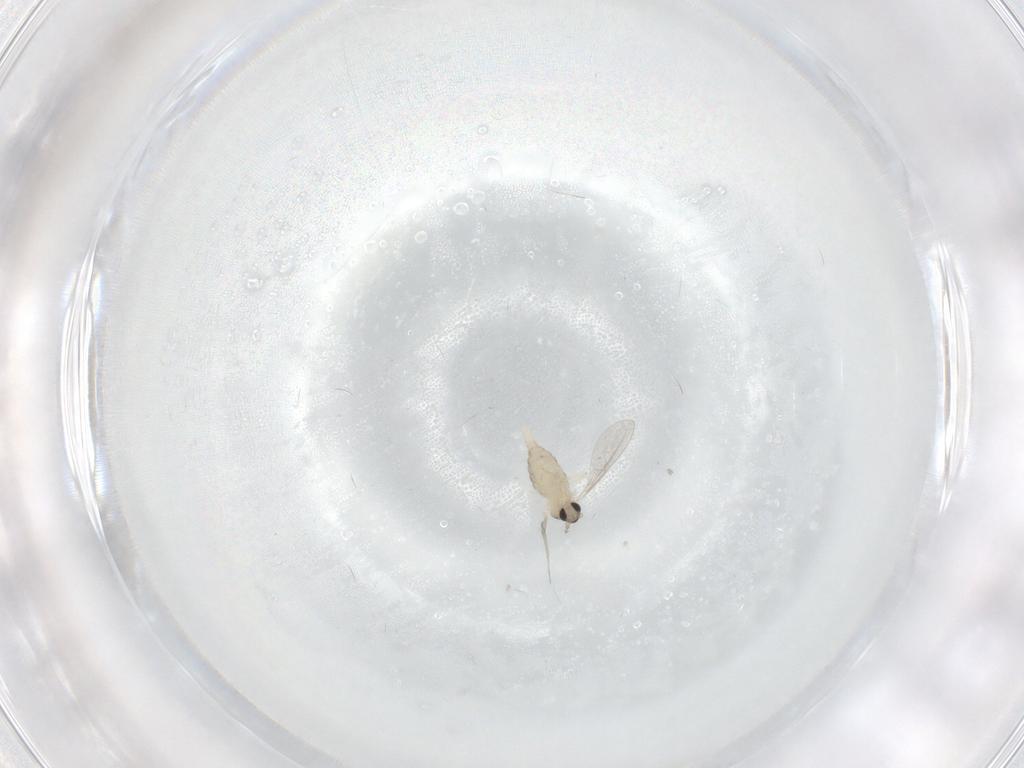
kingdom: Animalia
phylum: Arthropoda
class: Insecta
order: Diptera
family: Cecidomyiidae
